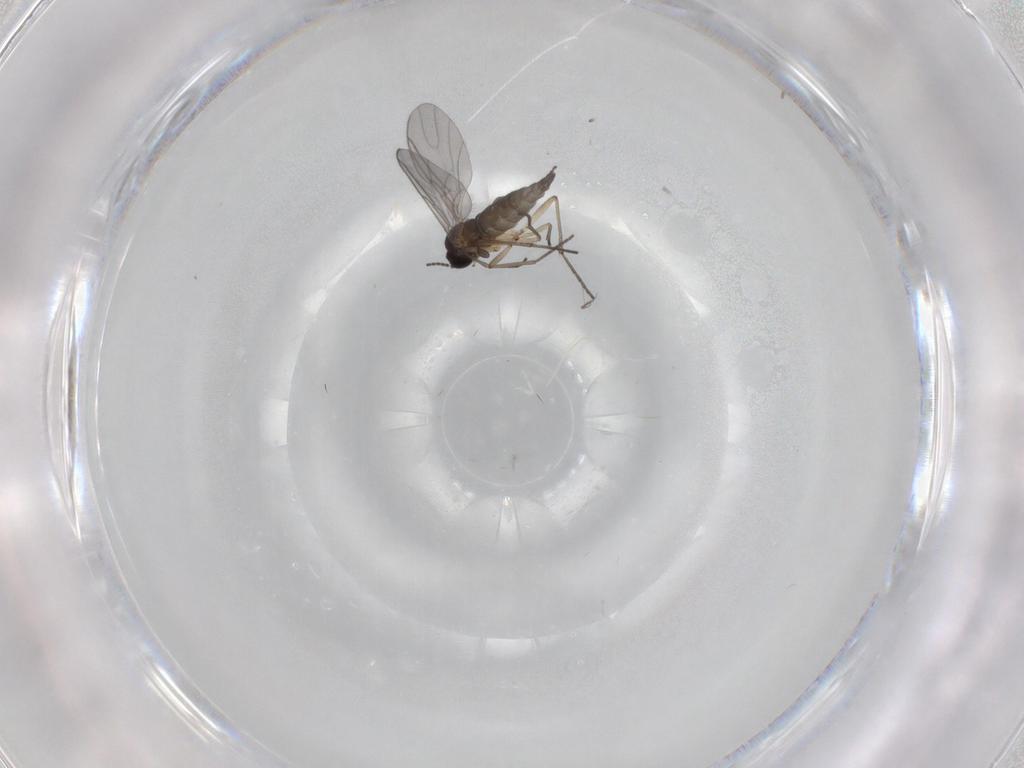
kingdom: Animalia
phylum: Arthropoda
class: Insecta
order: Diptera
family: Sciaridae
